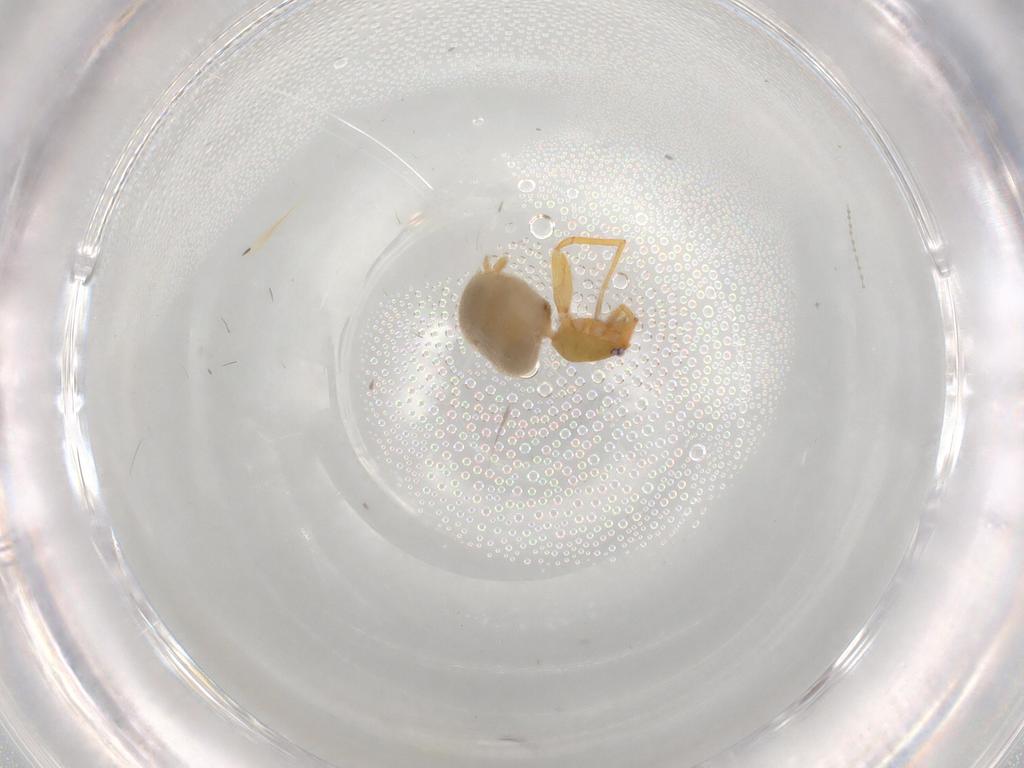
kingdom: Animalia
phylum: Arthropoda
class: Arachnida
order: Araneae
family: Oonopidae
